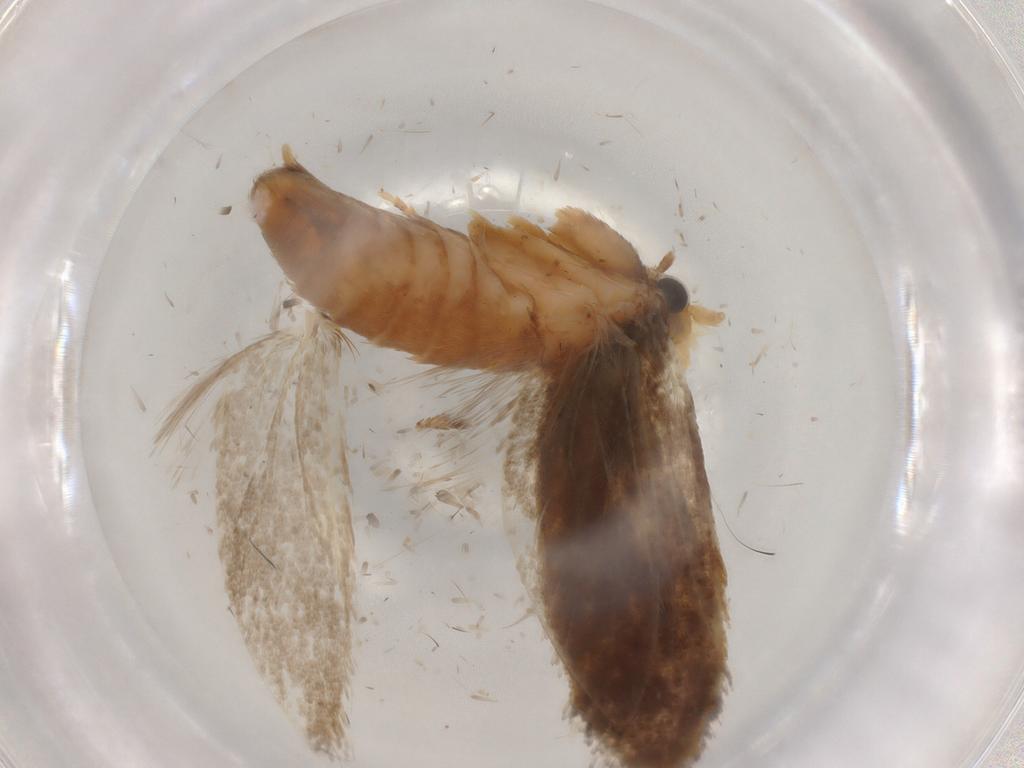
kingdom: Animalia
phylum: Arthropoda
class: Insecta
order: Lepidoptera
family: Tineidae
